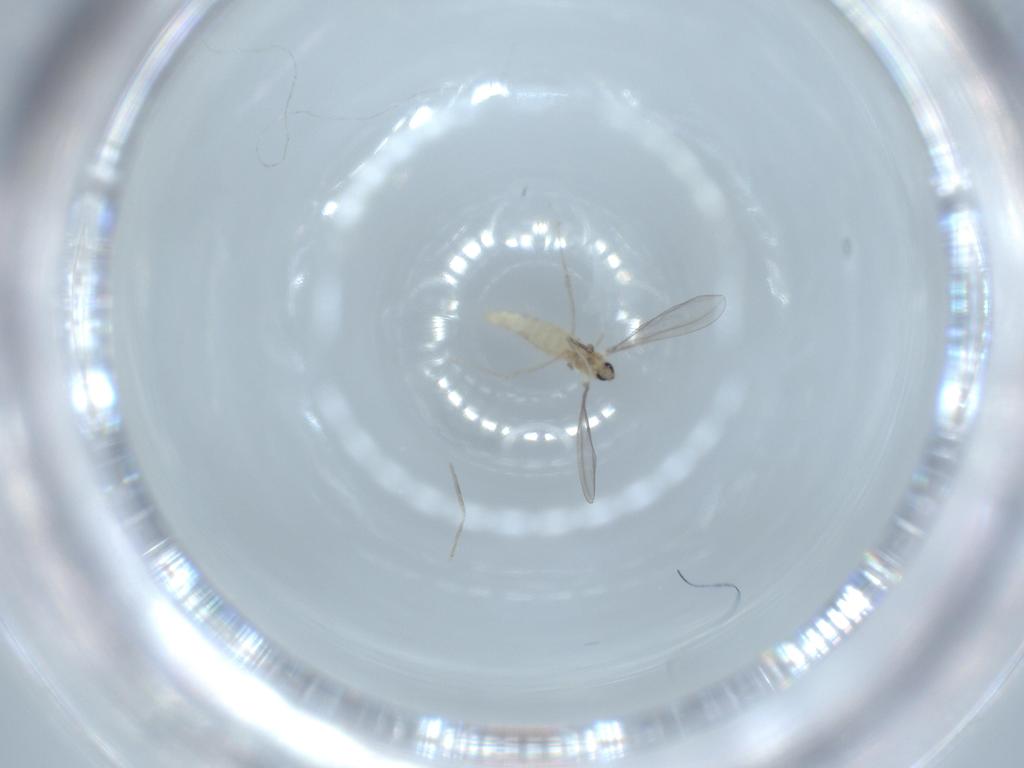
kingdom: Animalia
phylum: Arthropoda
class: Insecta
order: Diptera
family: Cecidomyiidae
